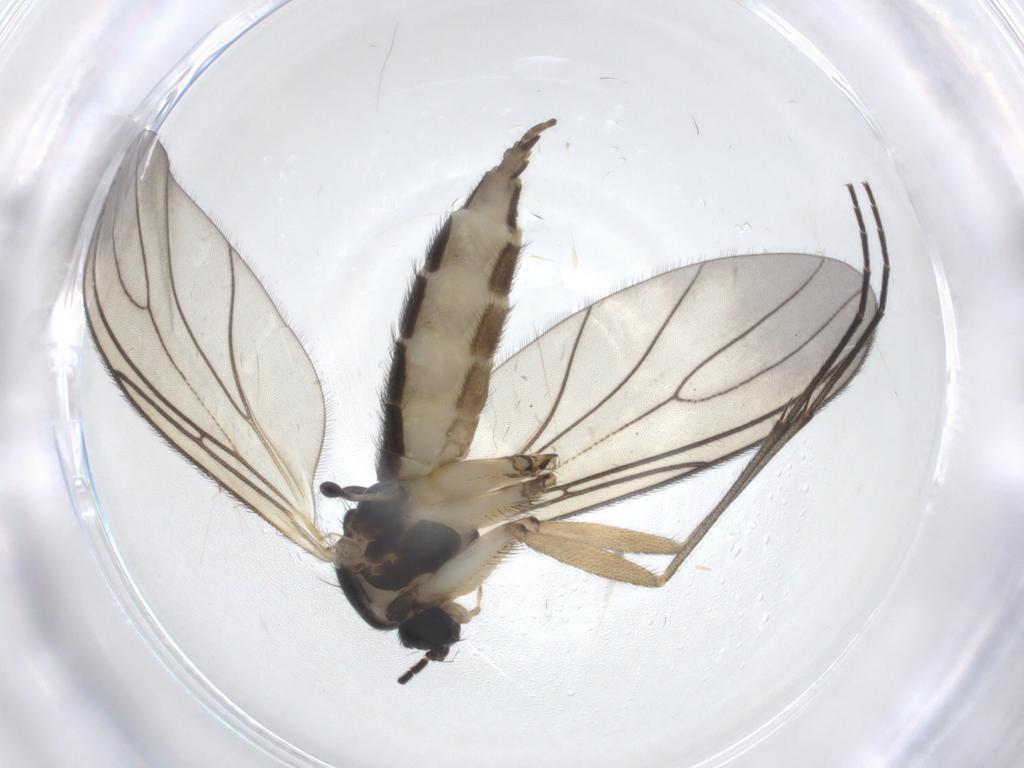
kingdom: Animalia
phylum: Arthropoda
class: Insecta
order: Diptera
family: Sciaridae
